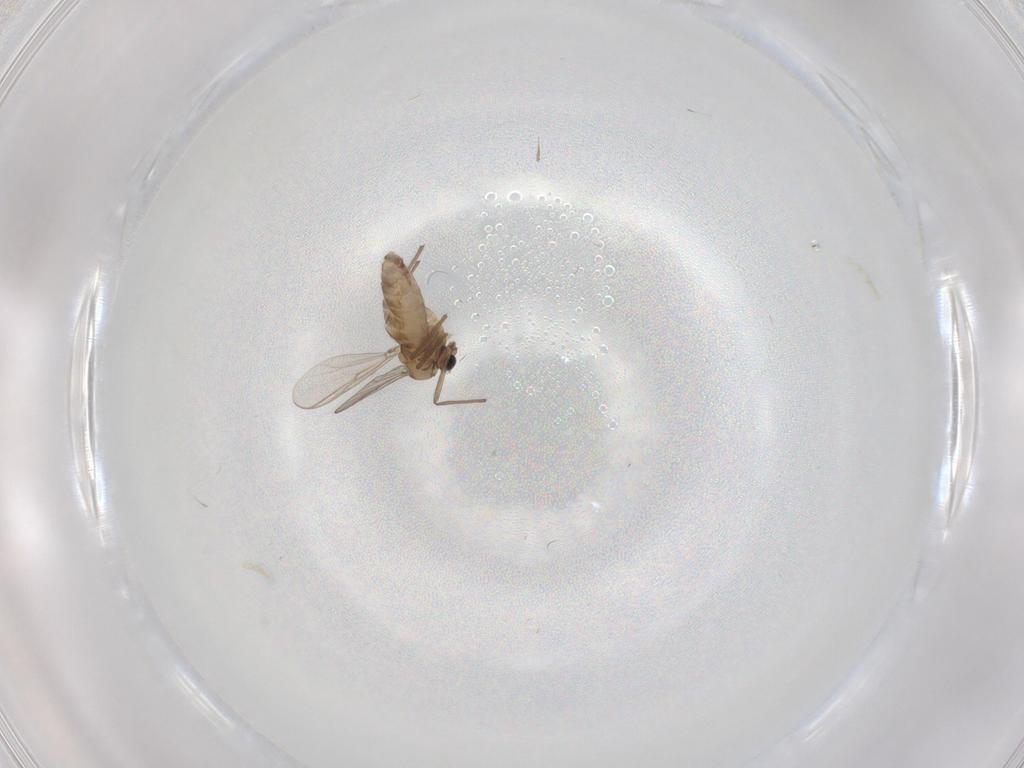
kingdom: Animalia
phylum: Arthropoda
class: Insecta
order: Diptera
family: Chironomidae
